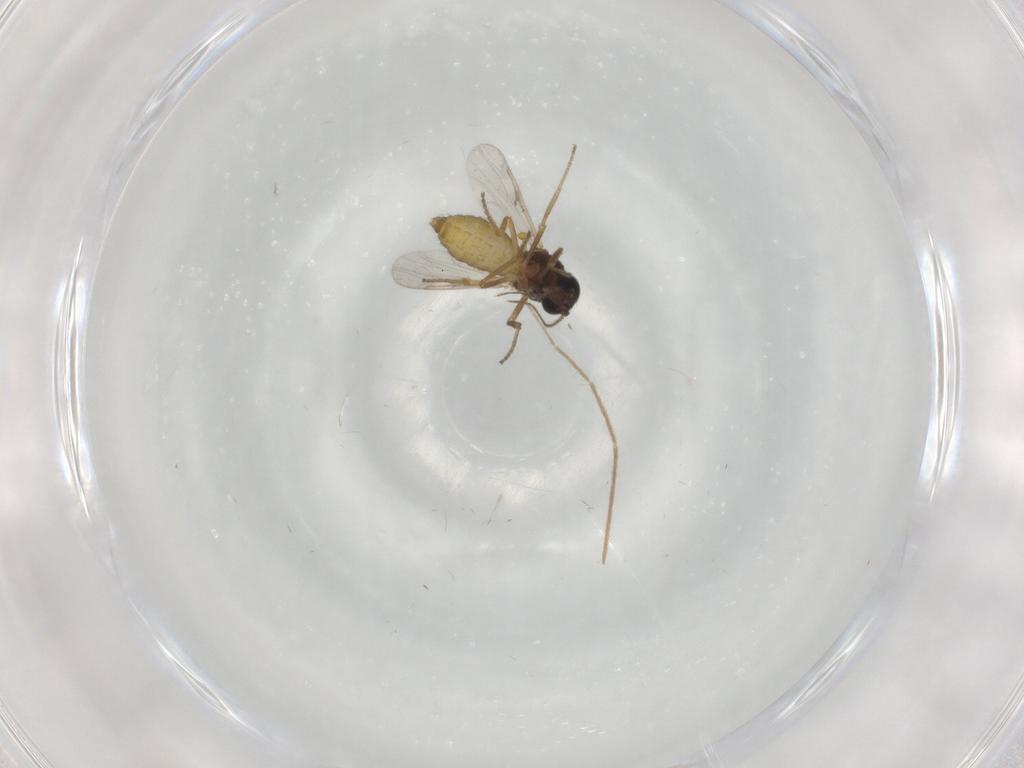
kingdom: Animalia
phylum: Arthropoda
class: Insecta
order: Diptera
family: Ceratopogonidae
